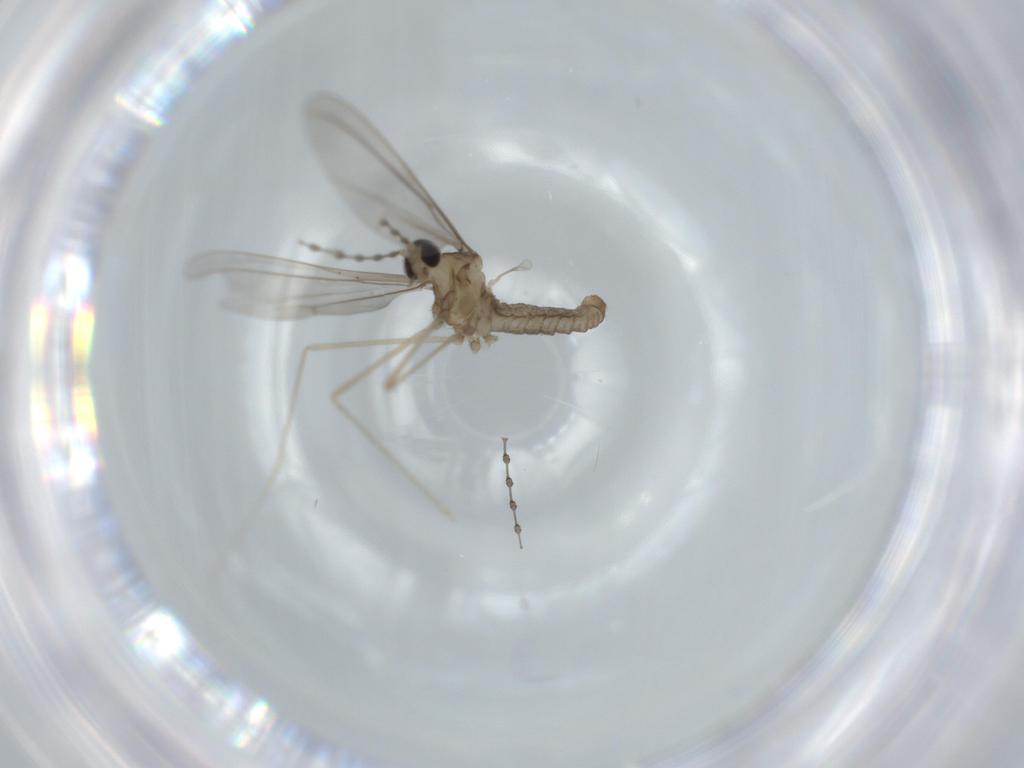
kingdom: Animalia
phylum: Arthropoda
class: Insecta
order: Diptera
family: Cecidomyiidae
